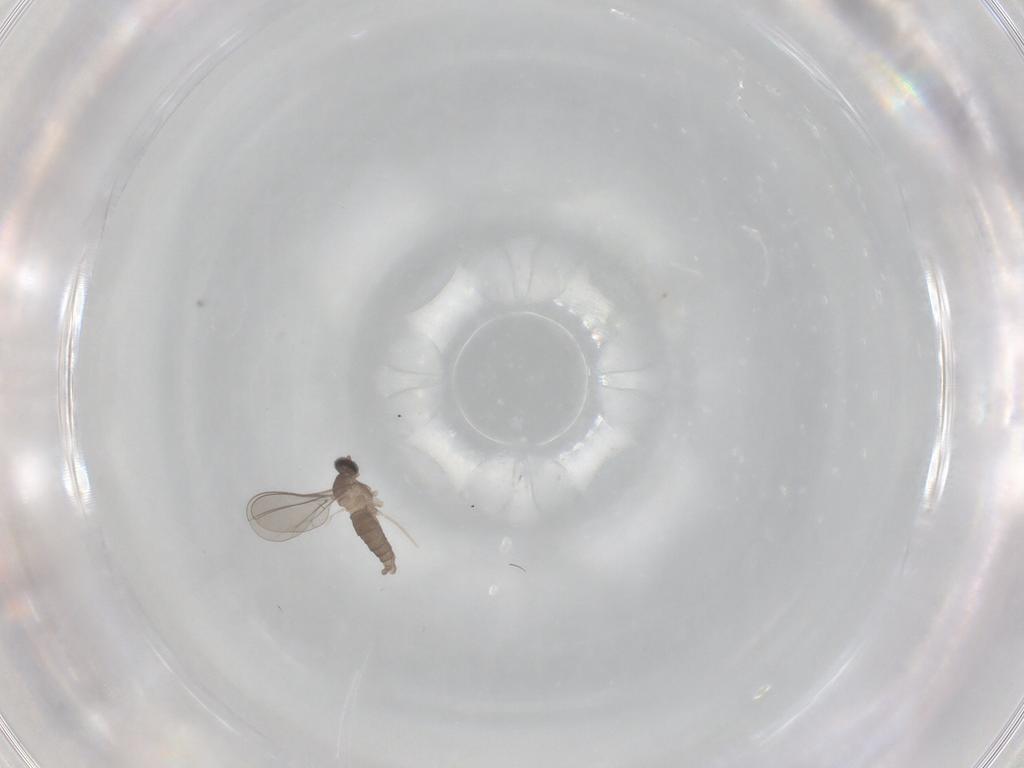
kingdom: Animalia
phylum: Arthropoda
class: Insecta
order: Diptera
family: Cecidomyiidae
